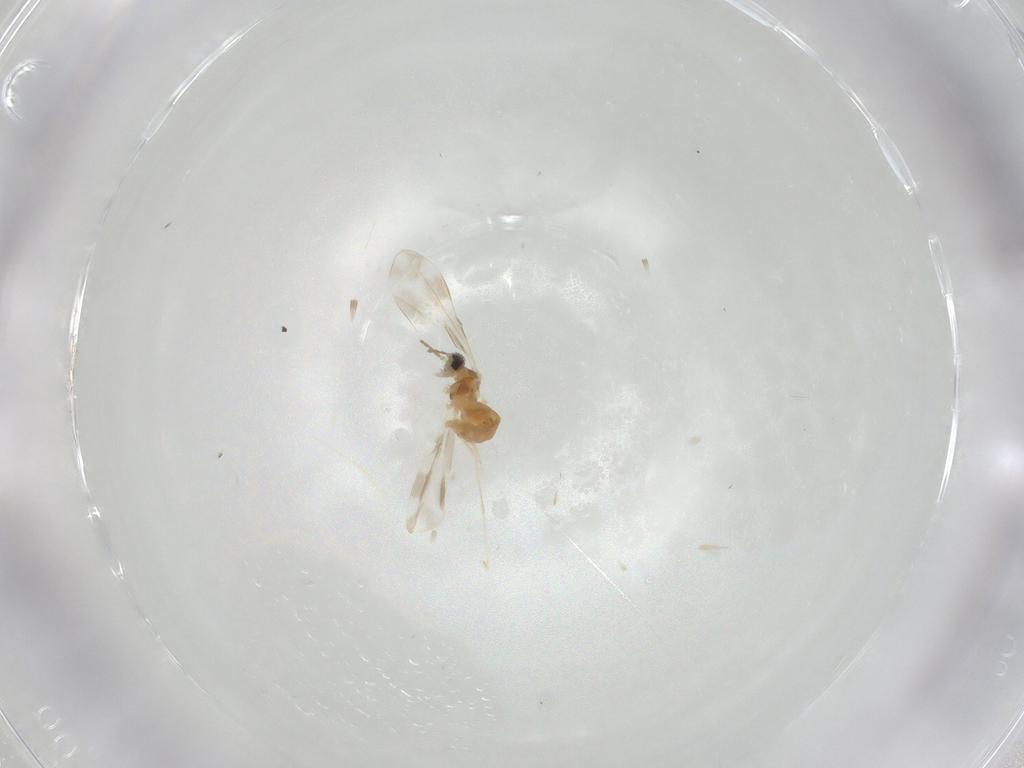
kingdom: Animalia
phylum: Arthropoda
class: Insecta
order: Diptera
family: Cecidomyiidae
